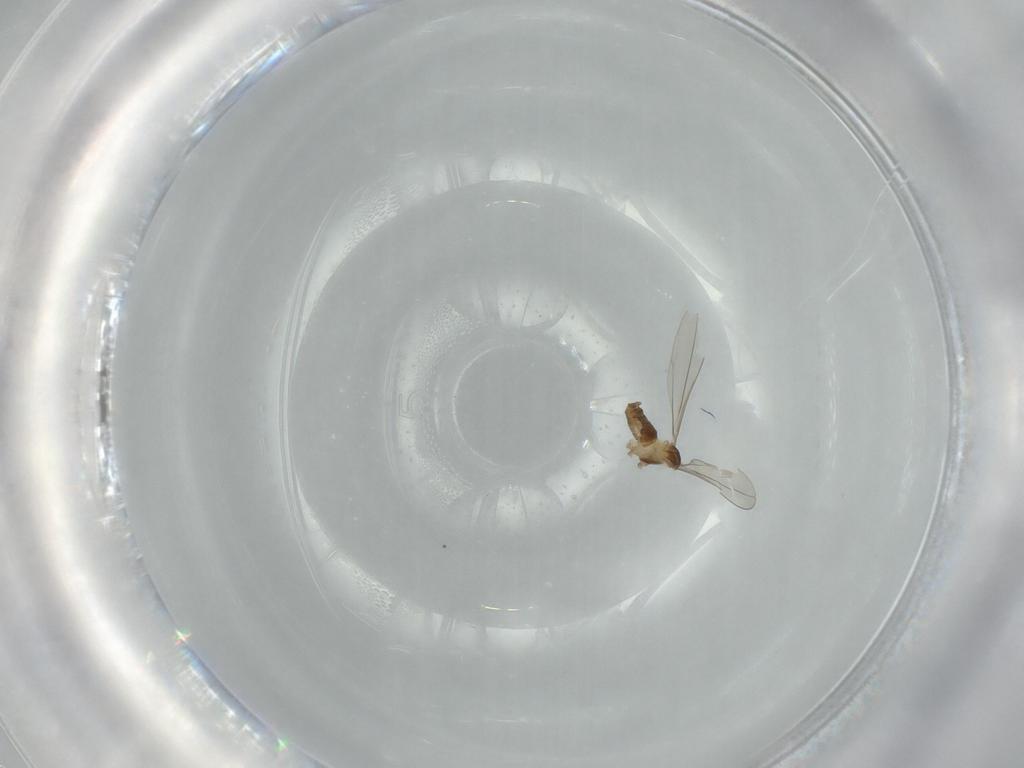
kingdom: Animalia
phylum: Arthropoda
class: Insecta
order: Diptera
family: Cecidomyiidae
